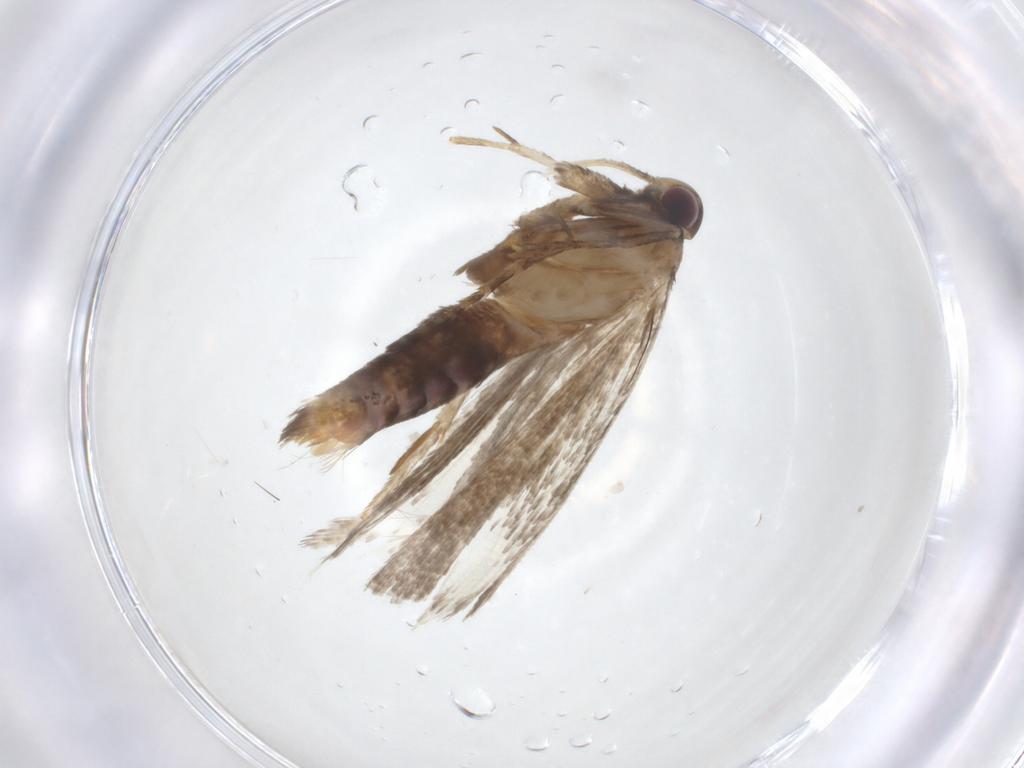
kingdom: Animalia
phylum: Arthropoda
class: Insecta
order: Lepidoptera
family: Gelechiidae
